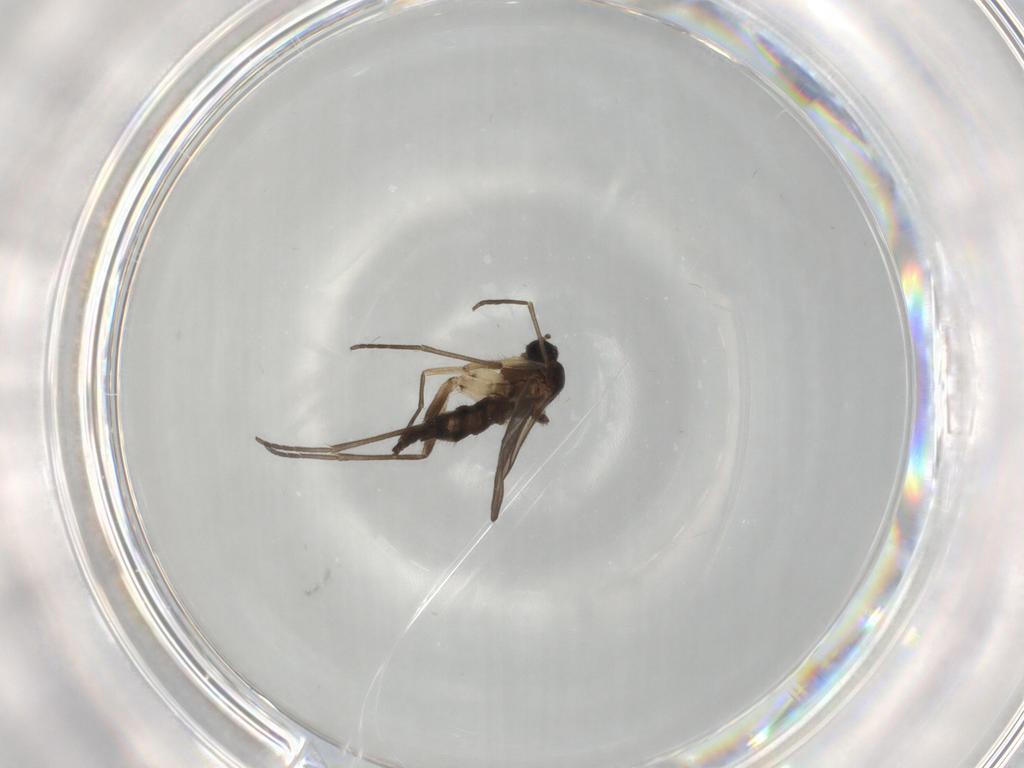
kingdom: Animalia
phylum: Arthropoda
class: Insecta
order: Diptera
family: Sciaridae
